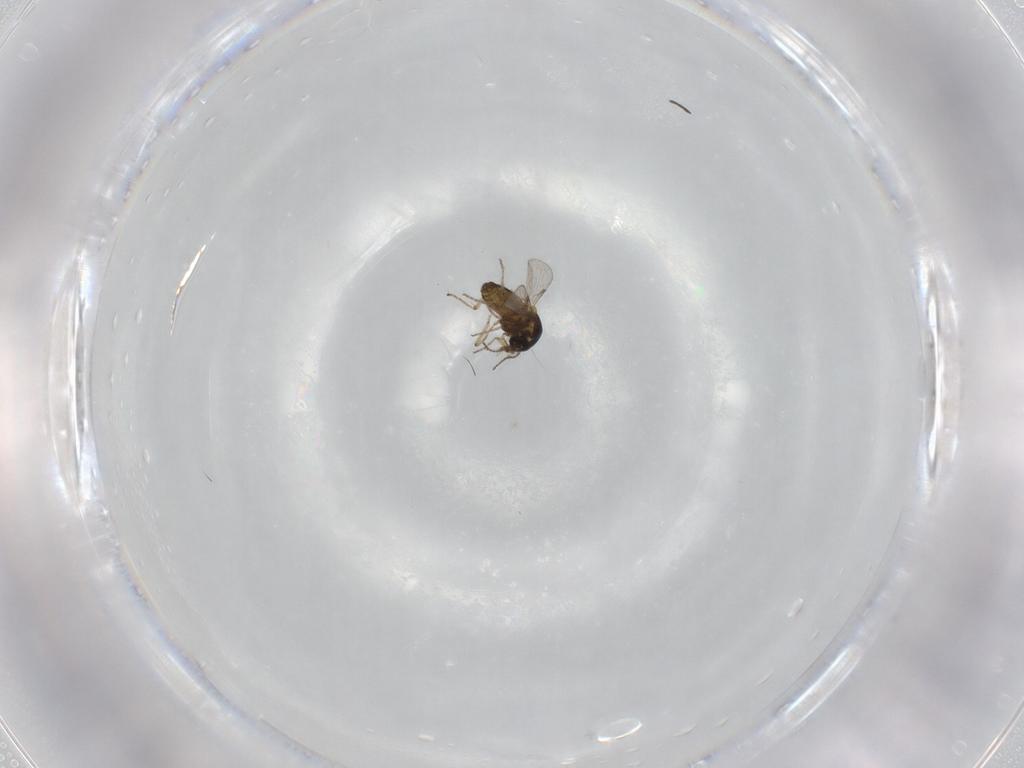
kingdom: Animalia
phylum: Arthropoda
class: Insecta
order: Diptera
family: Ceratopogonidae
